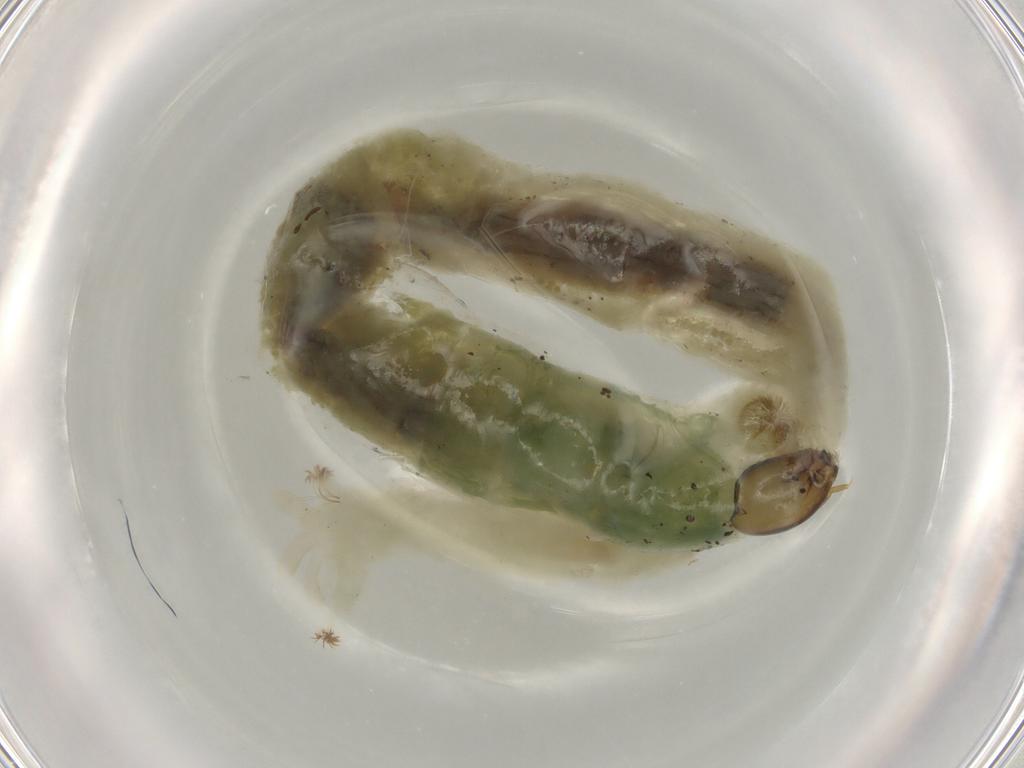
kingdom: Animalia
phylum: Arthropoda
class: Insecta
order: Diptera
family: Chironomidae
